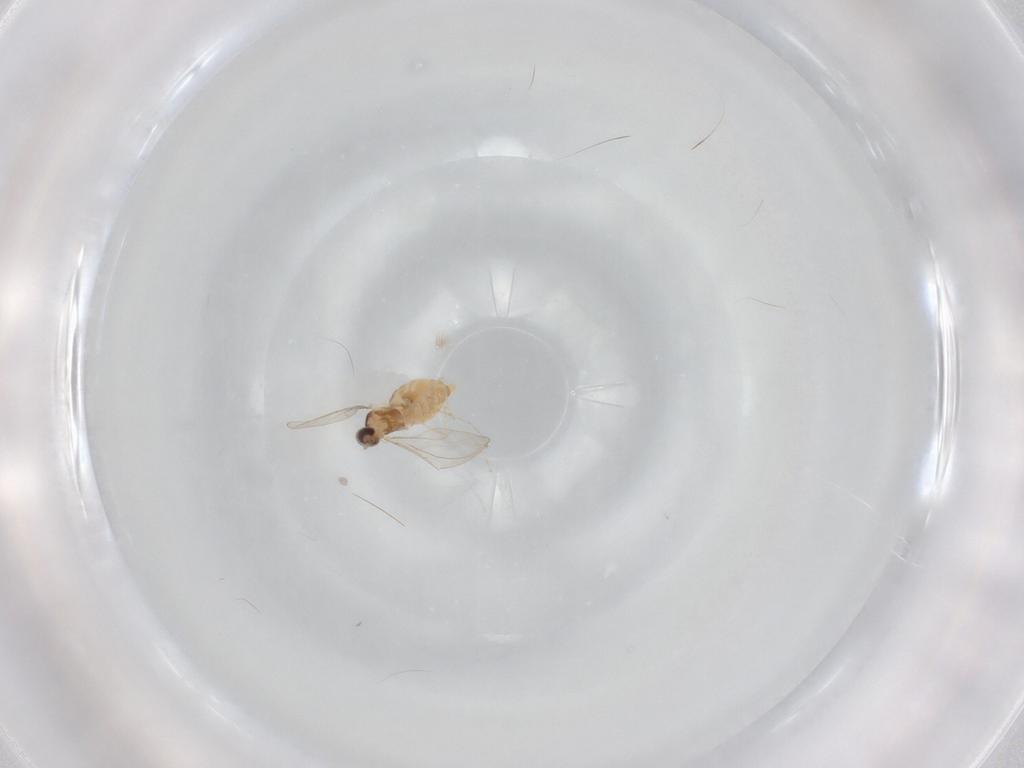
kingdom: Animalia
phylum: Arthropoda
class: Insecta
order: Diptera
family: Cecidomyiidae
